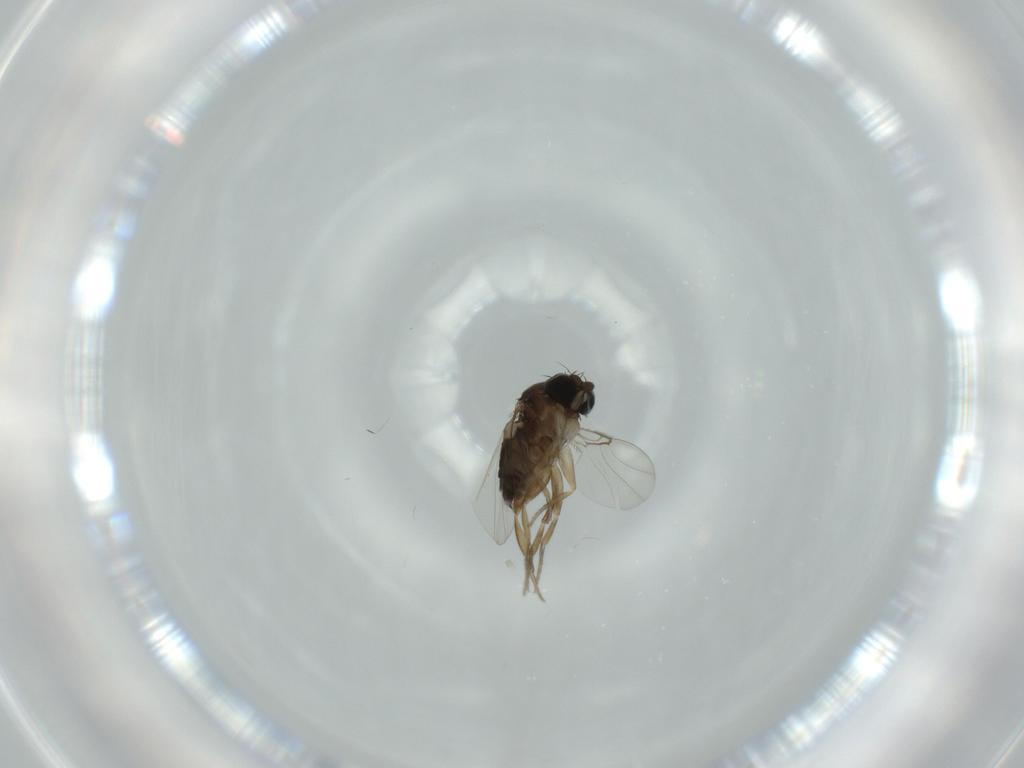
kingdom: Animalia
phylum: Arthropoda
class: Insecta
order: Diptera
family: Phoridae
